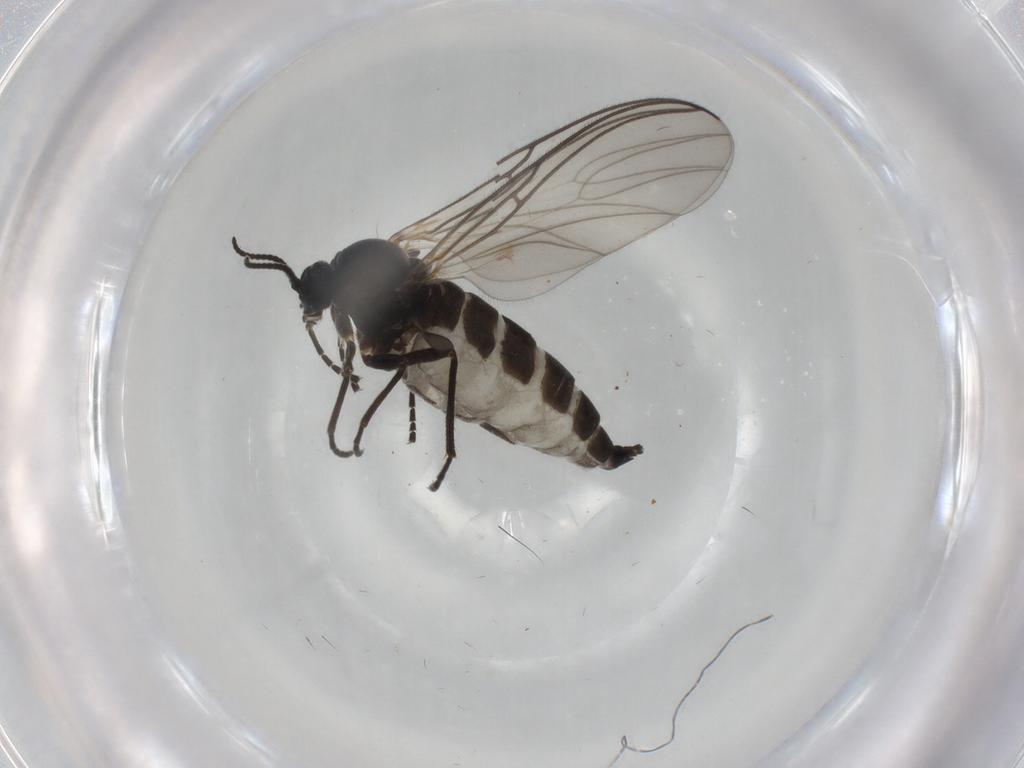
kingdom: Animalia
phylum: Arthropoda
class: Insecta
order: Diptera
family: Sciaridae
